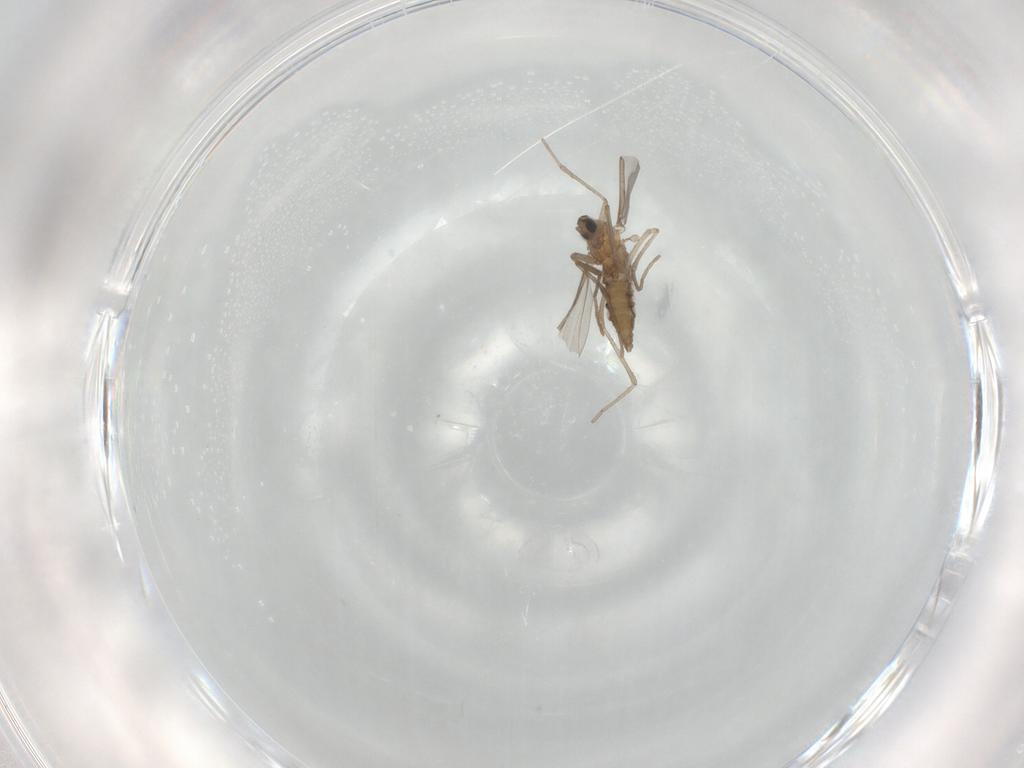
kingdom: Animalia
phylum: Arthropoda
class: Insecta
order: Diptera
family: Cecidomyiidae
